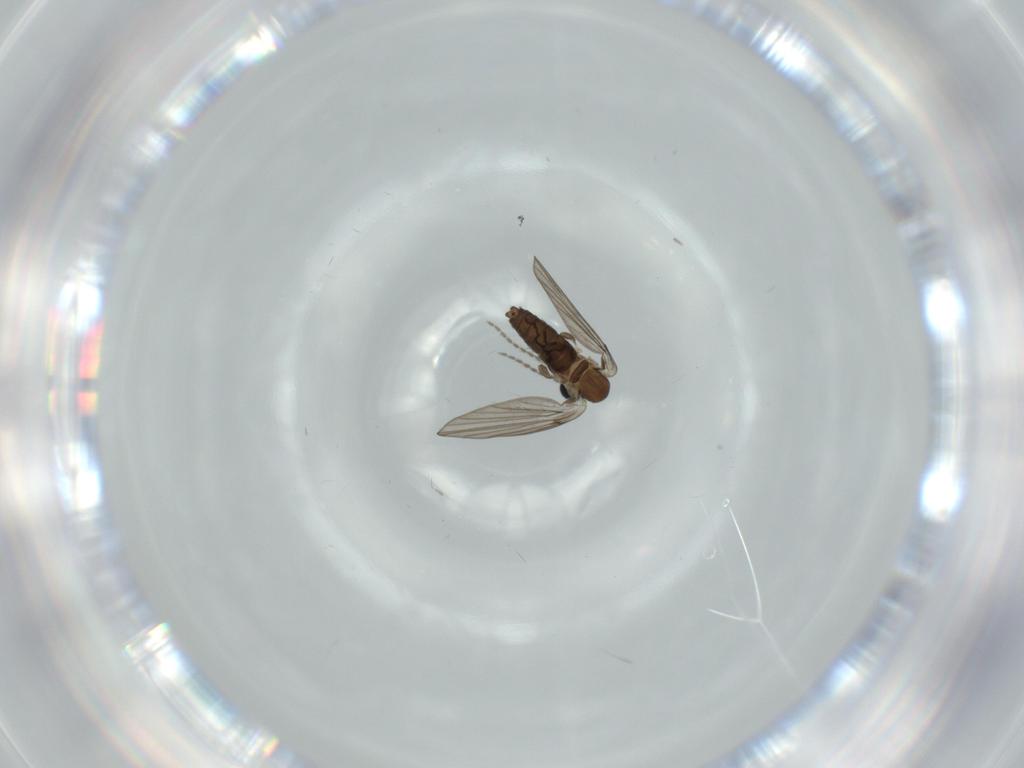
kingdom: Animalia
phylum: Arthropoda
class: Insecta
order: Diptera
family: Psychodidae
